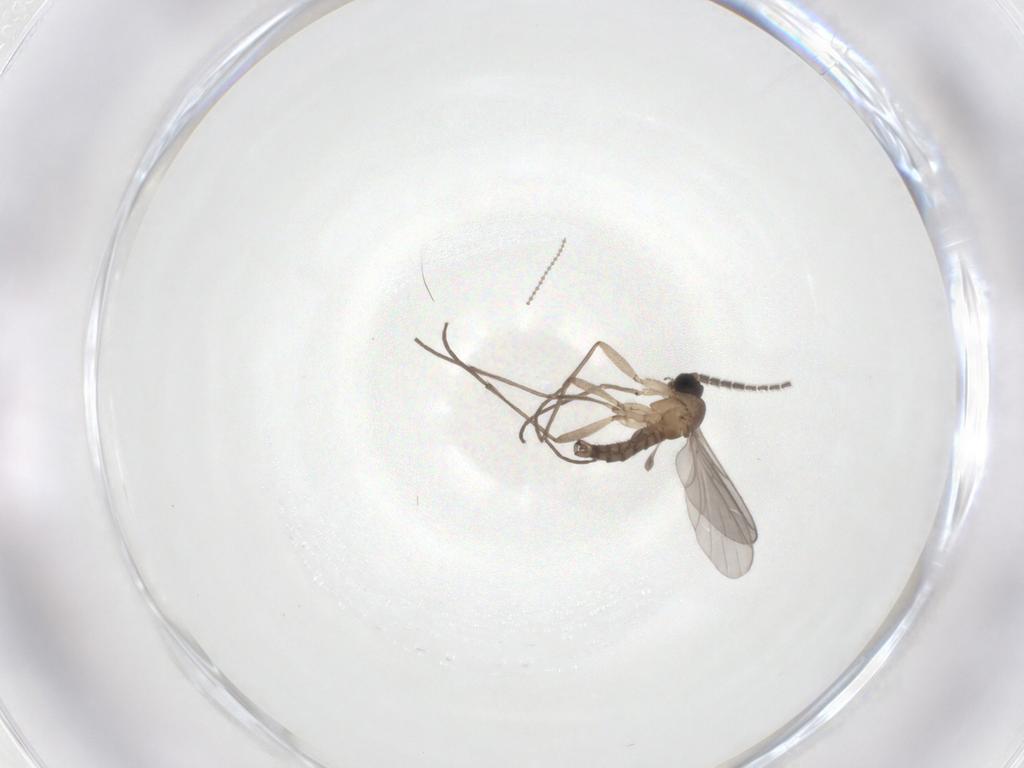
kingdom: Animalia
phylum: Arthropoda
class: Insecta
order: Diptera
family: Sciaridae
